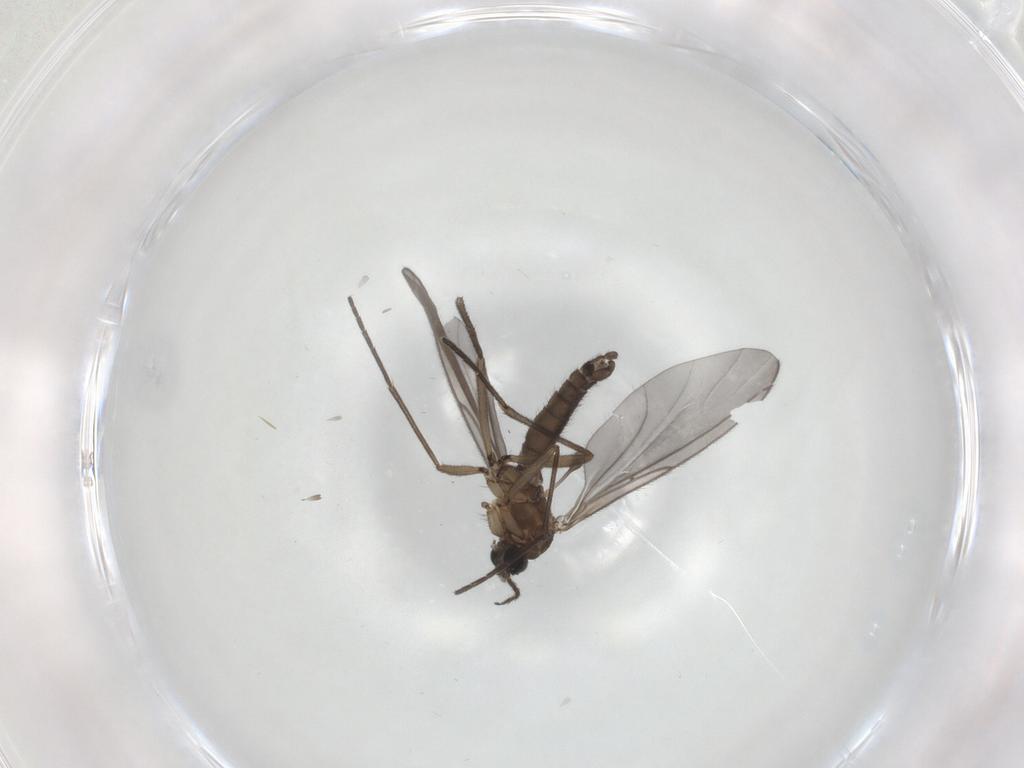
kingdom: Animalia
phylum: Arthropoda
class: Insecta
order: Diptera
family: Sciaridae
